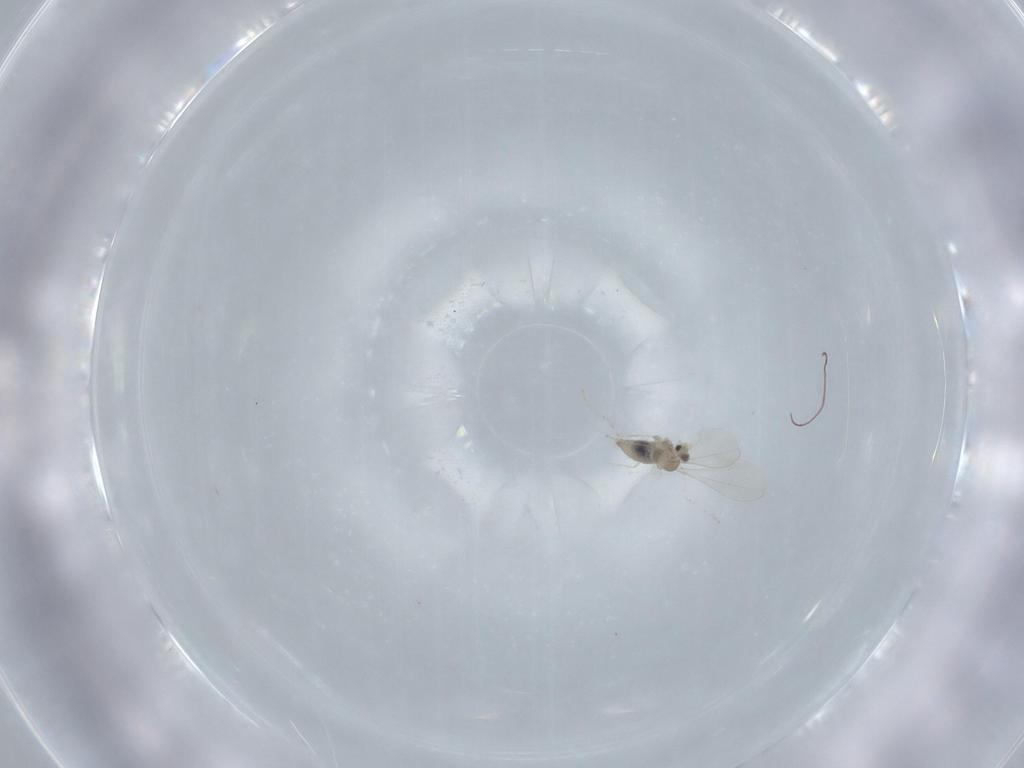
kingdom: Animalia
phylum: Arthropoda
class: Insecta
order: Diptera
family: Cecidomyiidae
